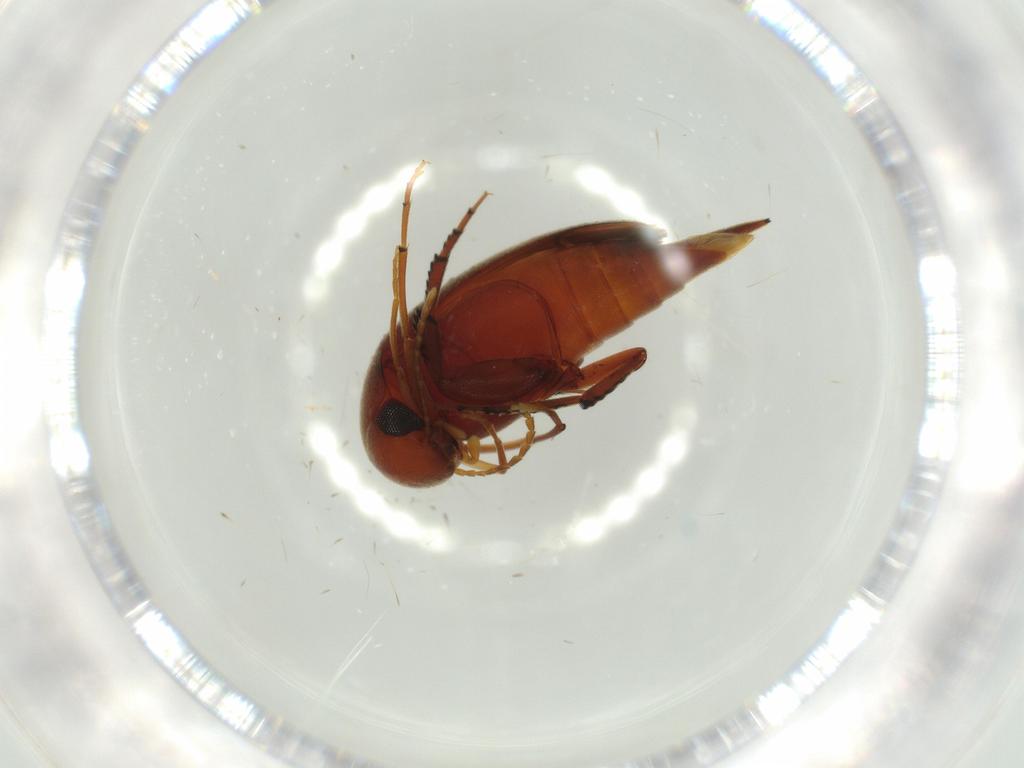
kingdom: Animalia
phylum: Arthropoda
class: Insecta
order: Coleoptera
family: Mordellidae
